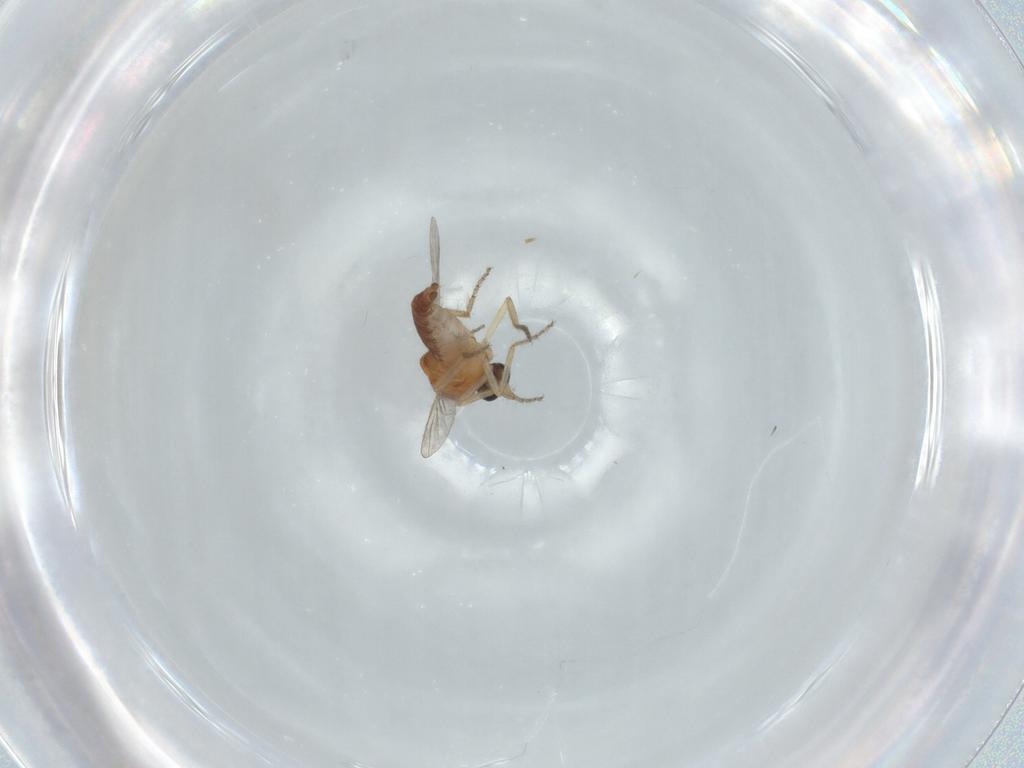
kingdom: Animalia
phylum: Arthropoda
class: Insecta
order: Diptera
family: Ceratopogonidae
